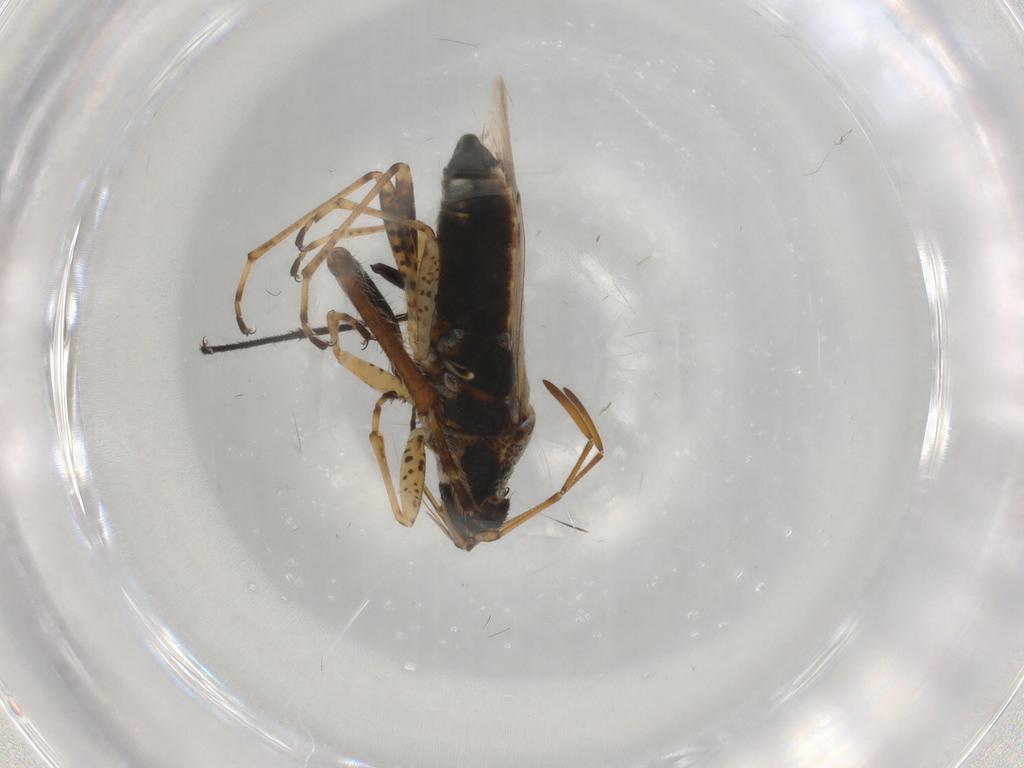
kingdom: Animalia
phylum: Arthropoda
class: Insecta
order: Hemiptera
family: Lygaeidae
